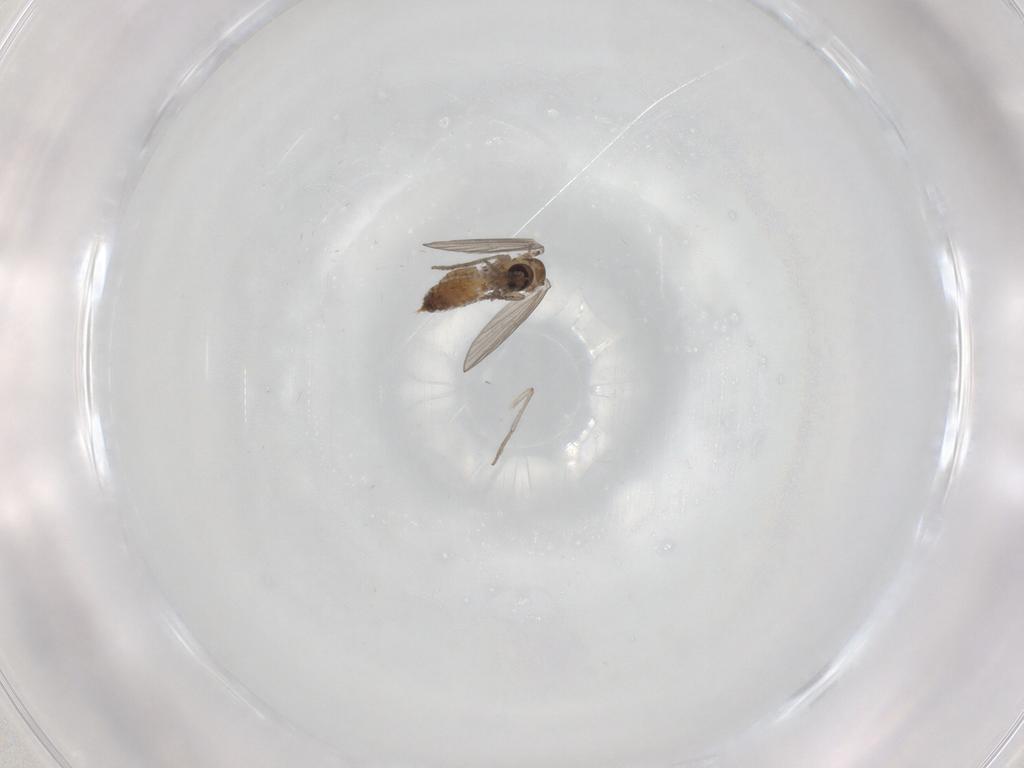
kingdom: Animalia
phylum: Arthropoda
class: Insecta
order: Diptera
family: Psychodidae
